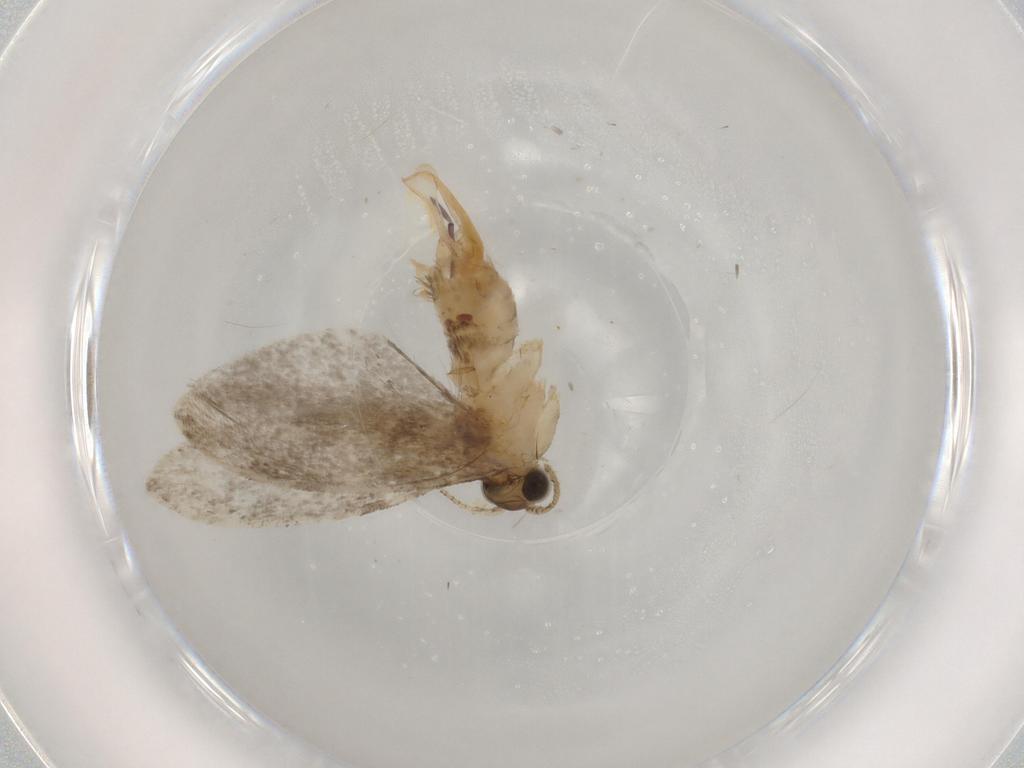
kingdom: Animalia
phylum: Arthropoda
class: Insecta
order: Lepidoptera
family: Tineidae
